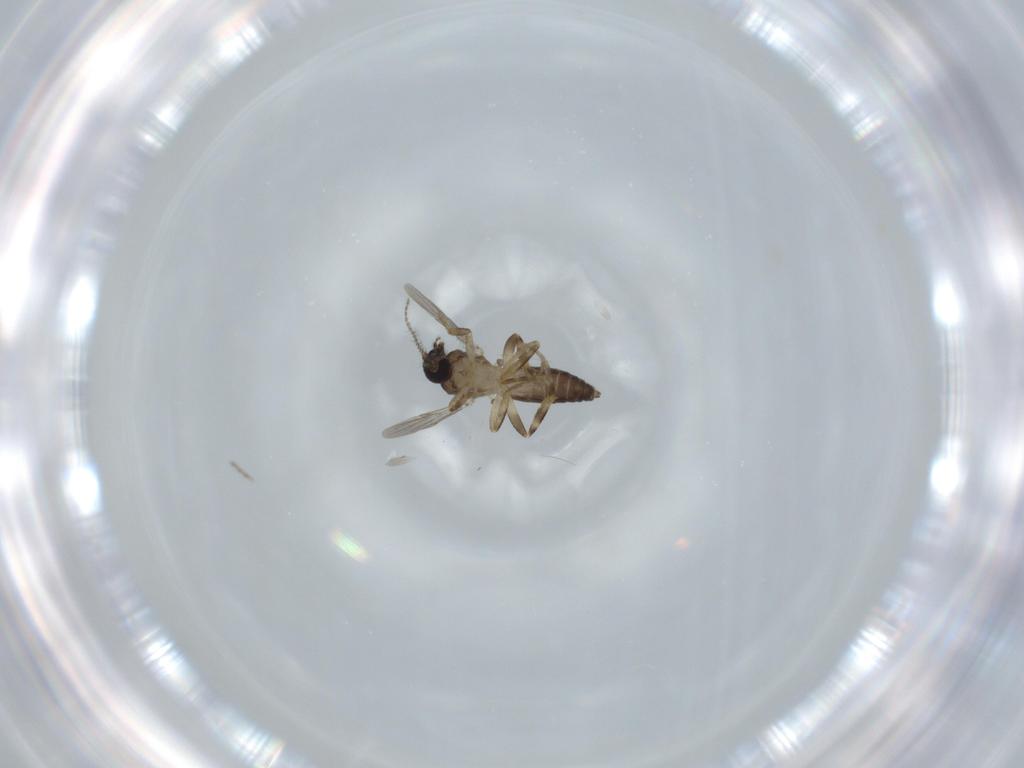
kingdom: Animalia
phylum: Arthropoda
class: Insecta
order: Diptera
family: Ceratopogonidae
